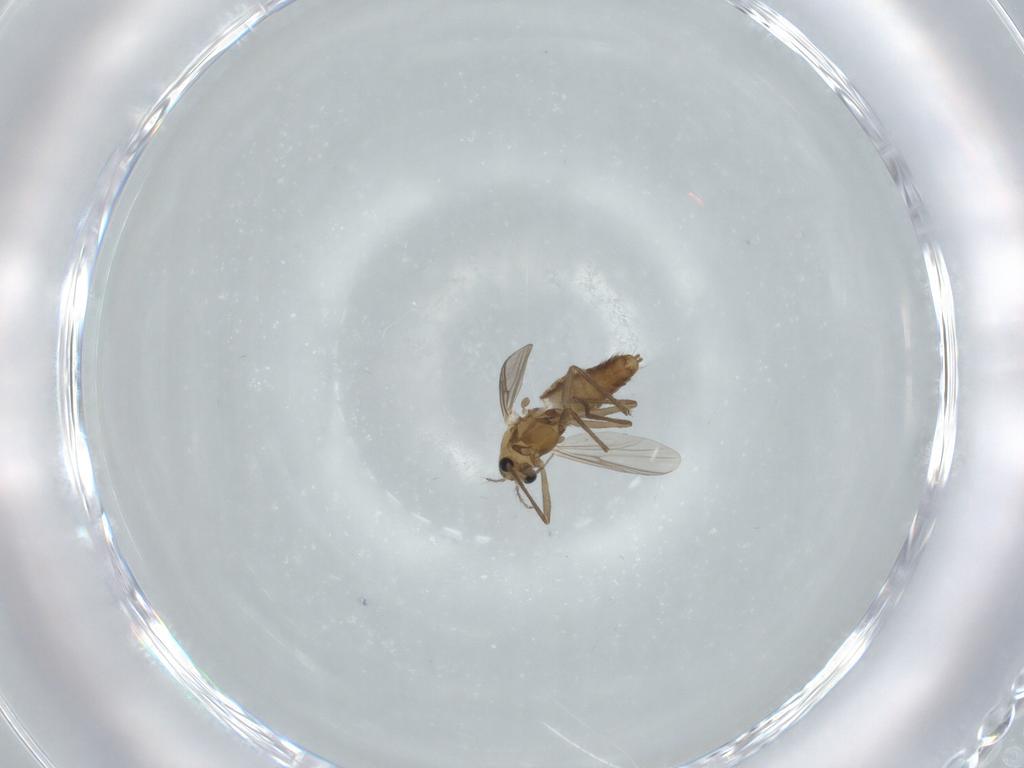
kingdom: Animalia
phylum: Arthropoda
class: Insecta
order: Diptera
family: Chironomidae
